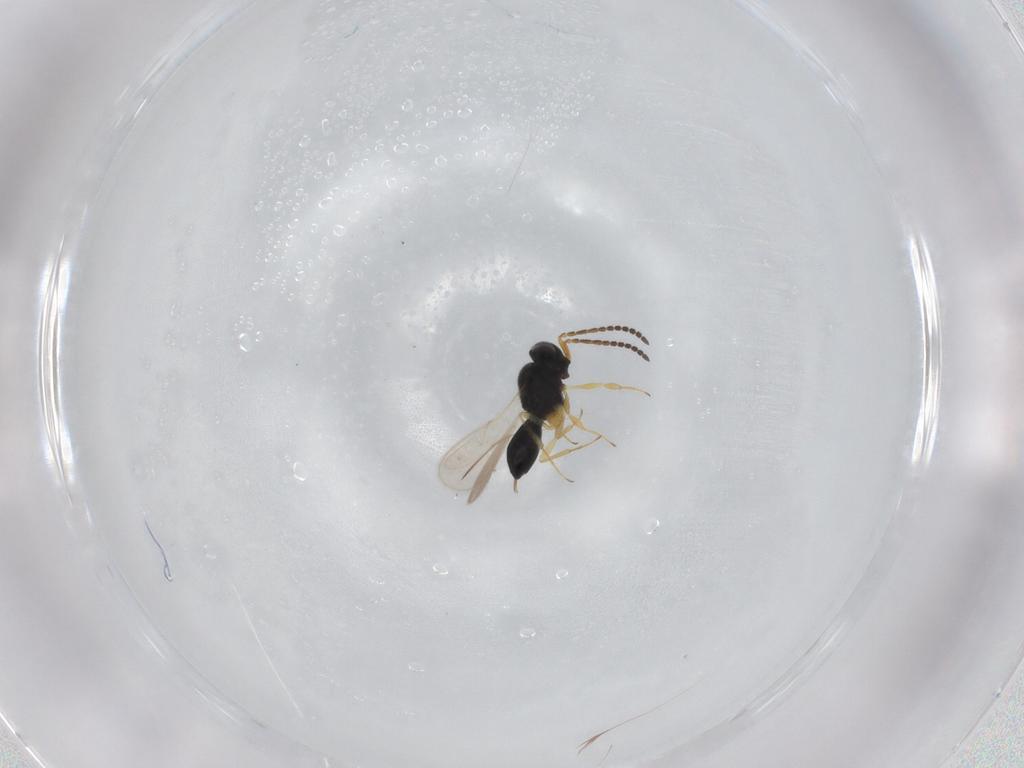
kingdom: Animalia
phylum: Arthropoda
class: Insecta
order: Hymenoptera
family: Scelionidae
